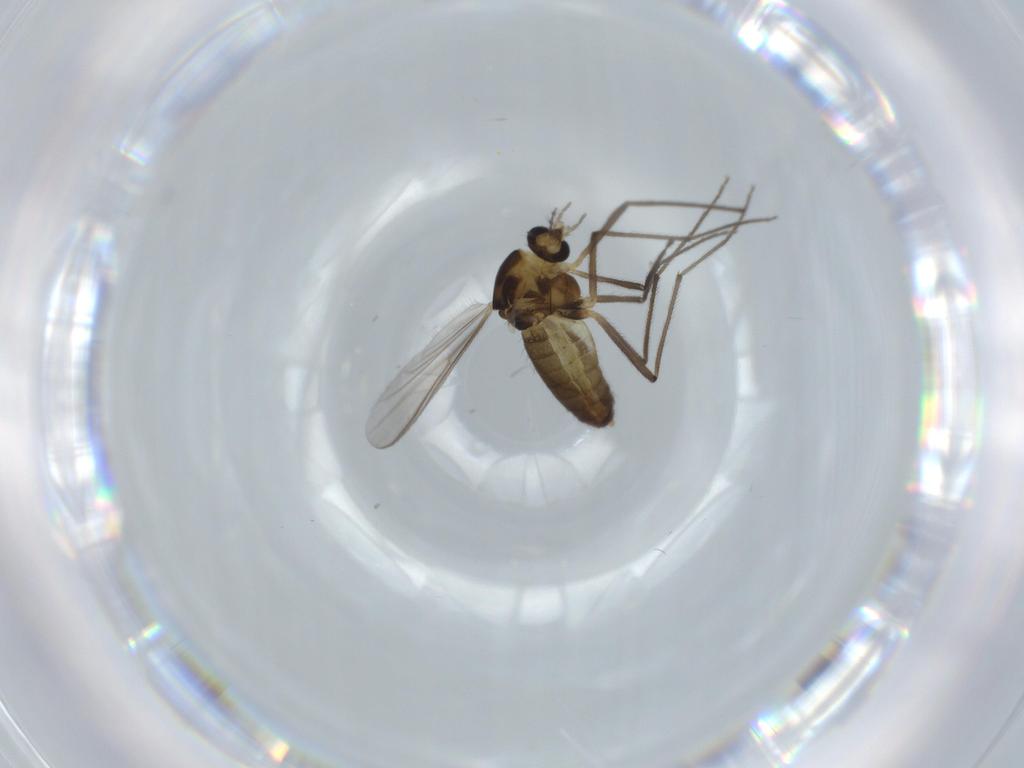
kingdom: Animalia
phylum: Arthropoda
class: Insecta
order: Diptera
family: Chironomidae
